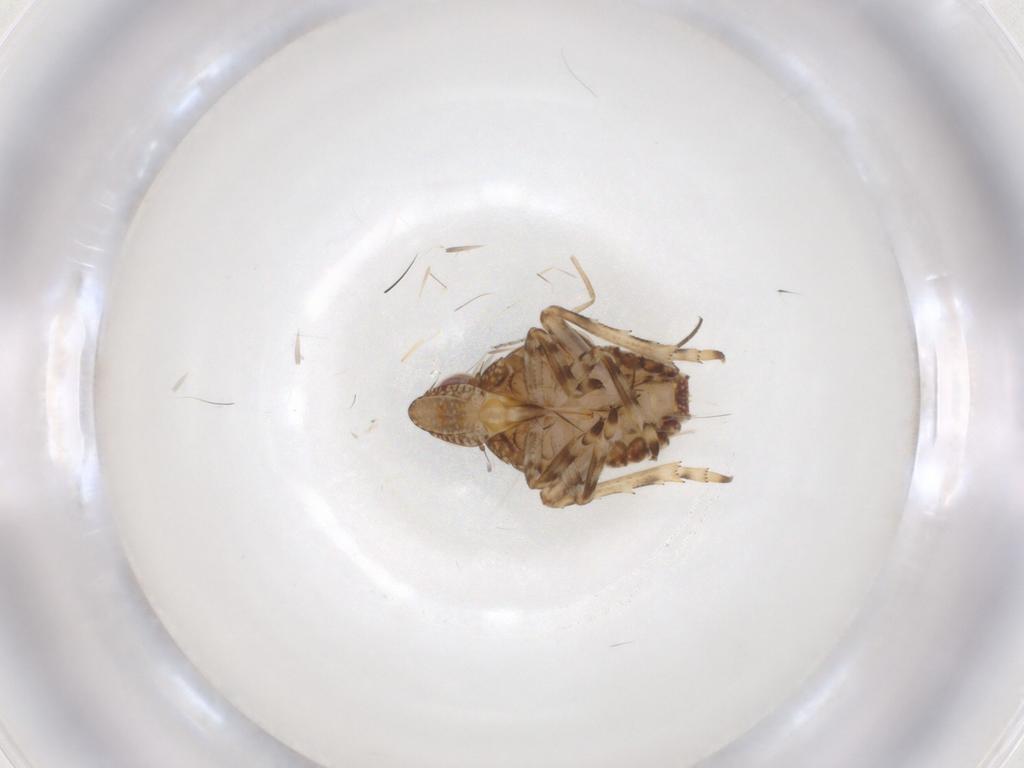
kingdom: Animalia
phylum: Arthropoda
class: Insecta
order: Hemiptera
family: Tropiduchidae
